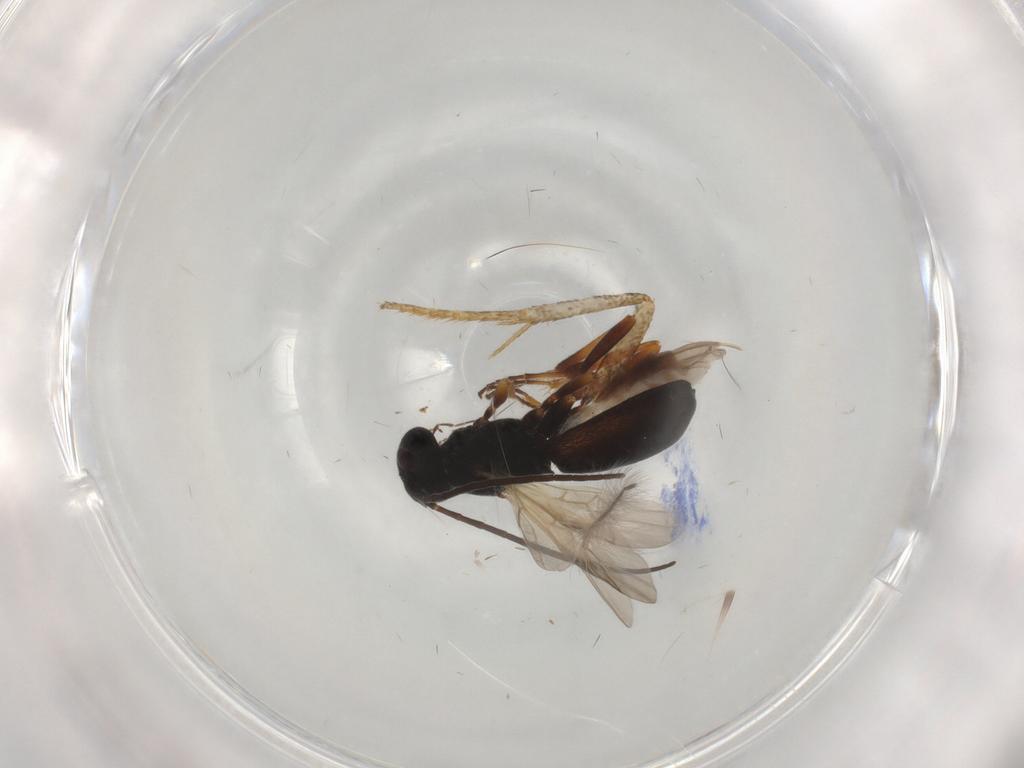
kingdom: Animalia
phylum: Arthropoda
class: Insecta
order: Hymenoptera
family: Braconidae
